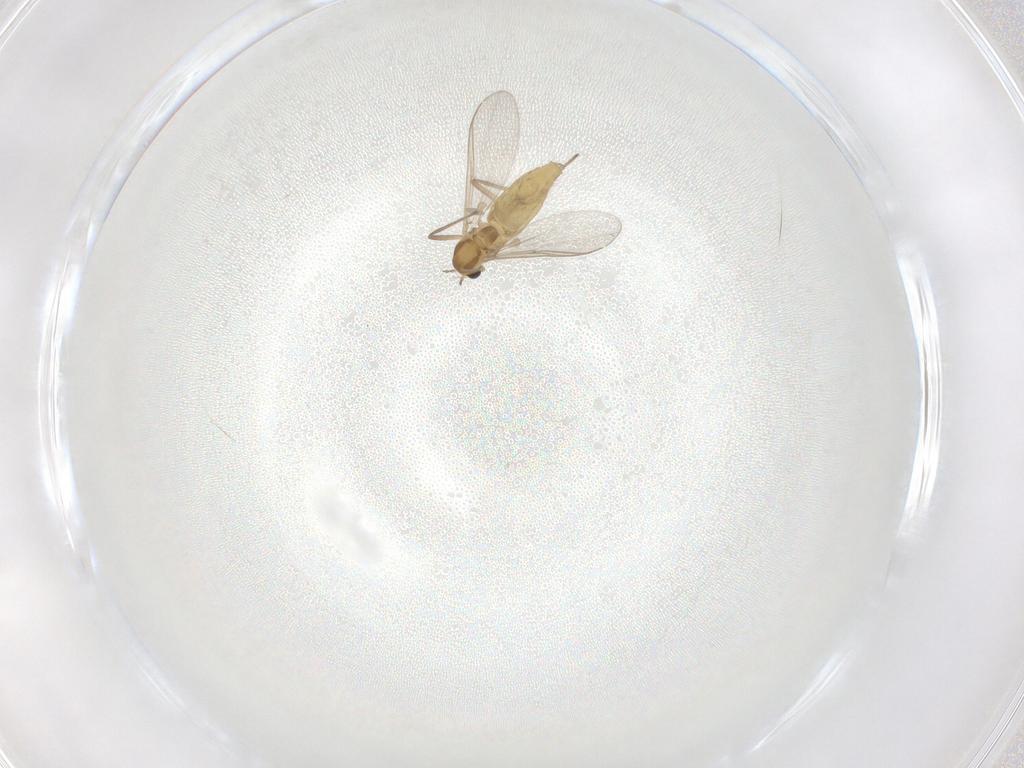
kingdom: Animalia
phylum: Arthropoda
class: Insecta
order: Diptera
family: Chironomidae
